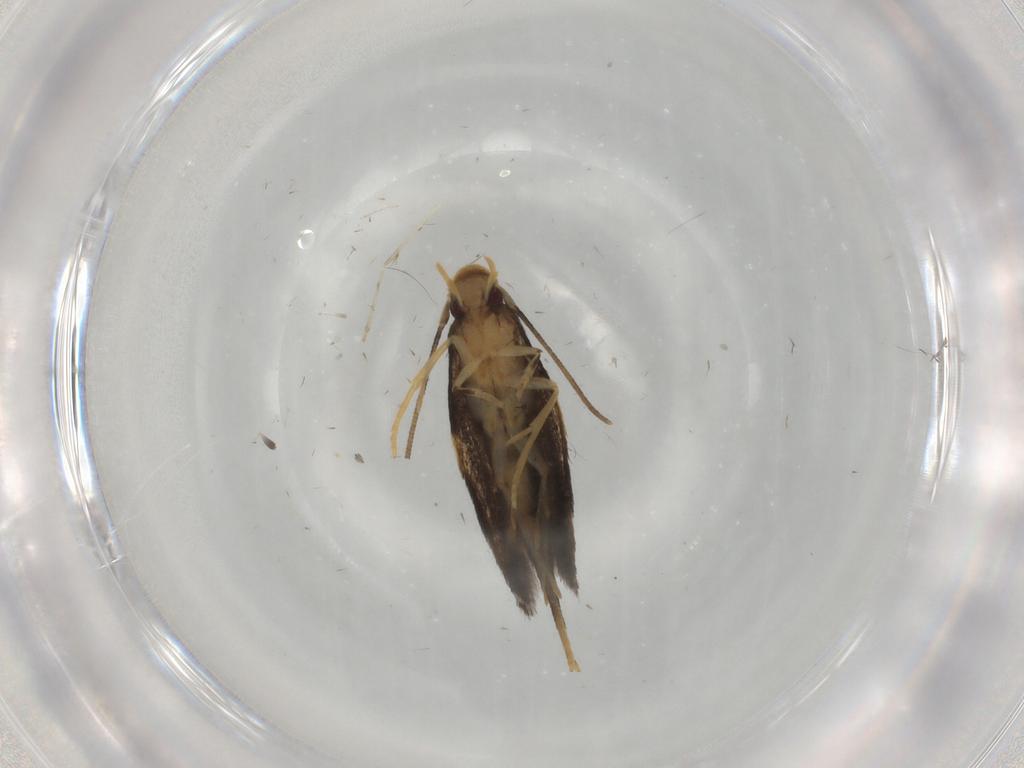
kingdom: Animalia
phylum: Arthropoda
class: Insecta
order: Lepidoptera
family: Gelechiidae
